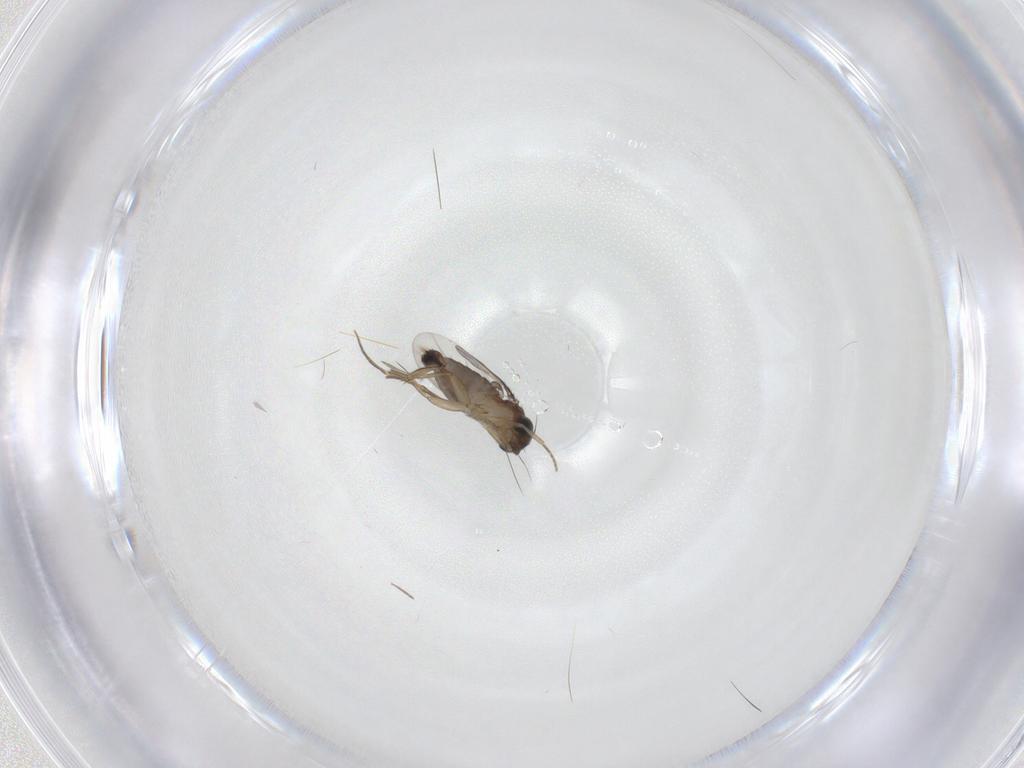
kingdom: Animalia
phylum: Arthropoda
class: Insecta
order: Diptera
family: Phoridae
